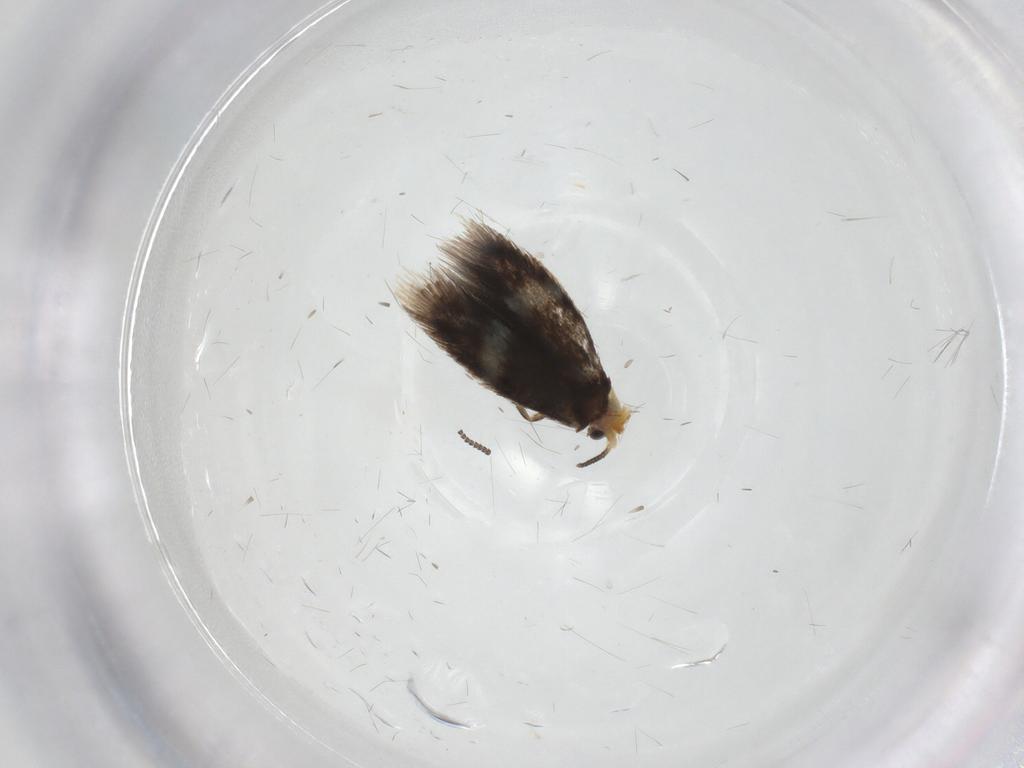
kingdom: Animalia
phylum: Arthropoda
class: Insecta
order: Lepidoptera
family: Nepticulidae
